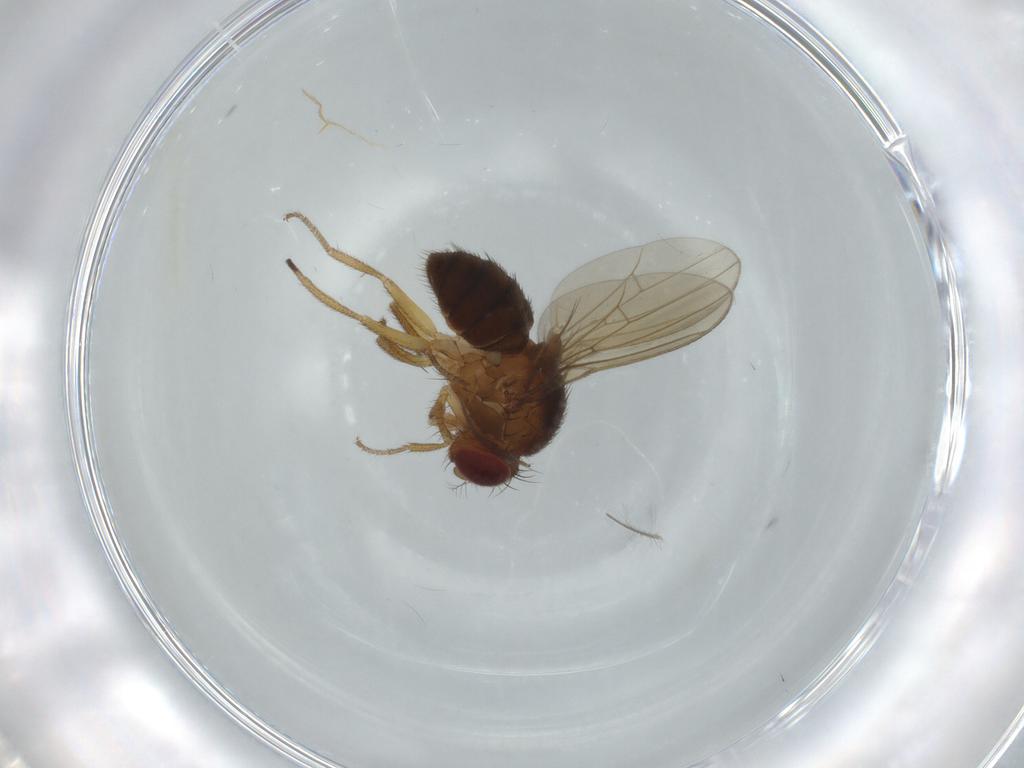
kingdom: Animalia
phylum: Arthropoda
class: Insecta
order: Diptera
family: Drosophilidae
